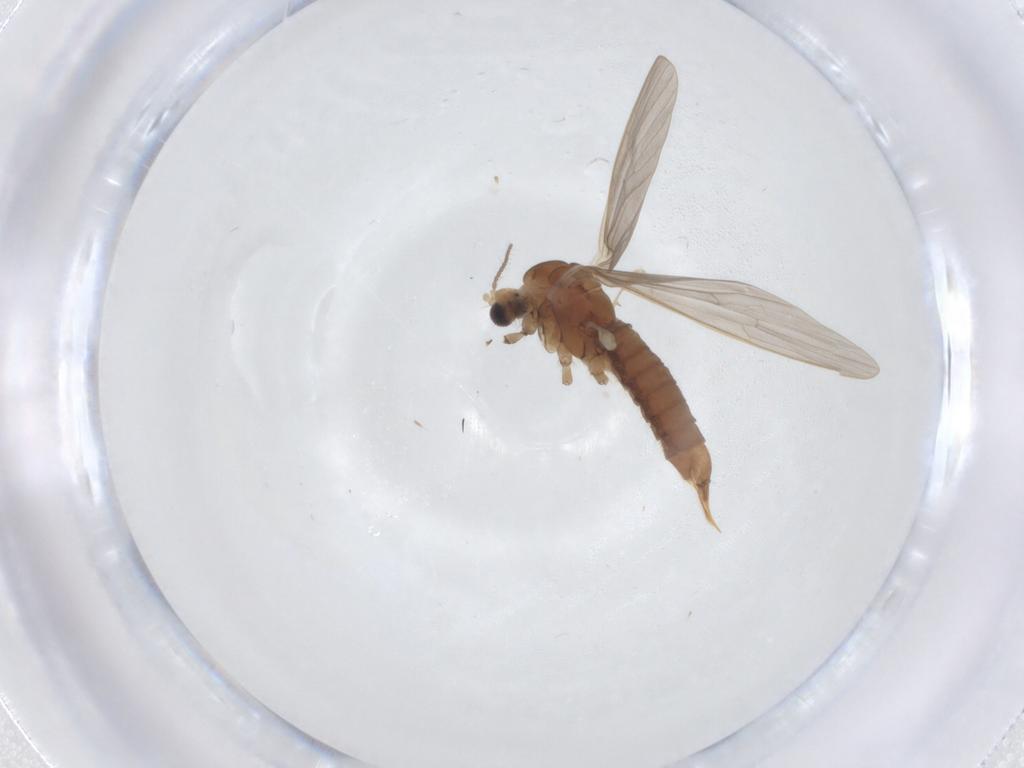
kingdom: Animalia
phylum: Arthropoda
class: Insecta
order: Diptera
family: Limoniidae
